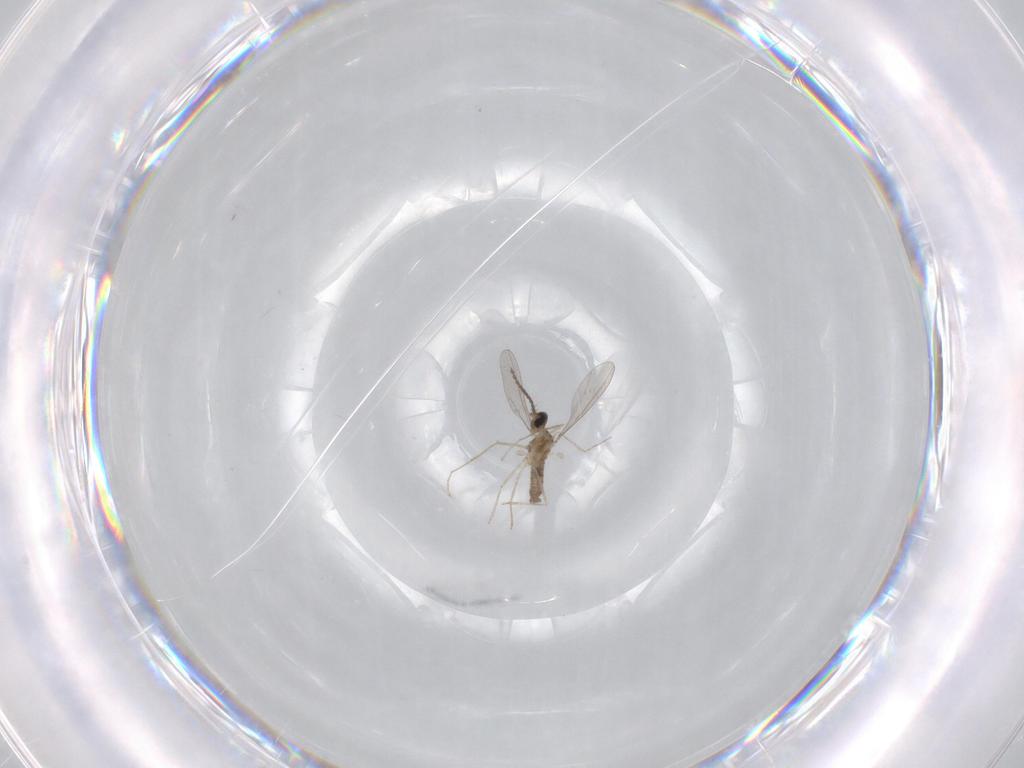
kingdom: Animalia
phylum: Arthropoda
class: Insecta
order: Diptera
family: Cecidomyiidae
